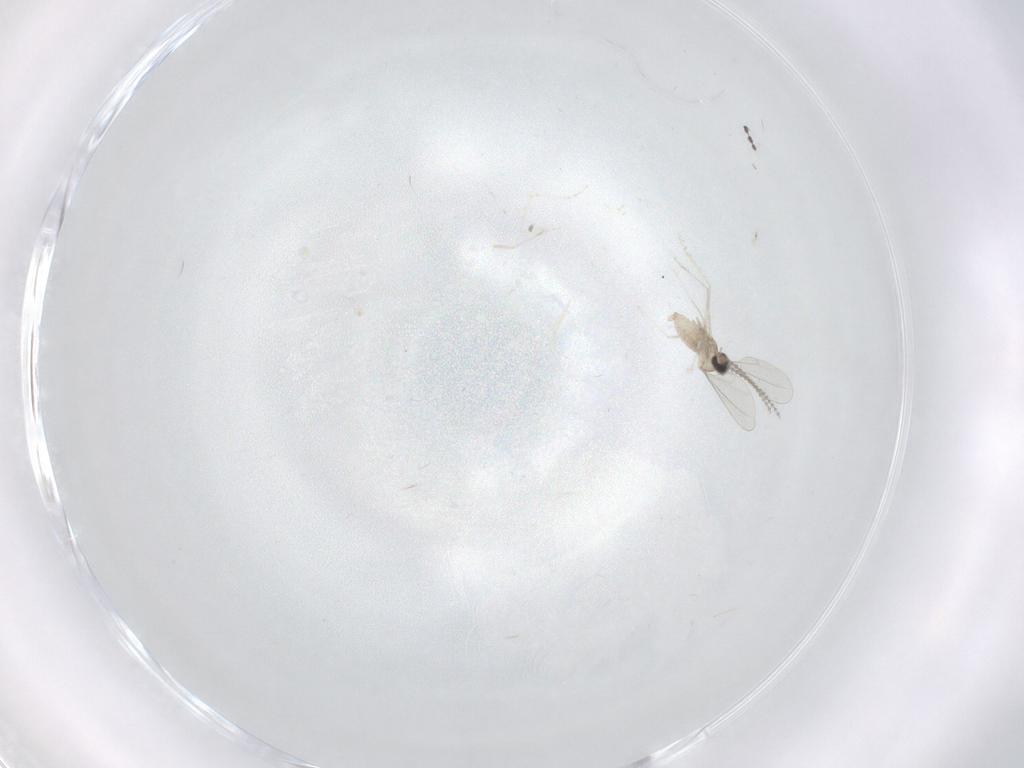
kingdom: Animalia
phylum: Arthropoda
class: Insecta
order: Diptera
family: Cecidomyiidae
